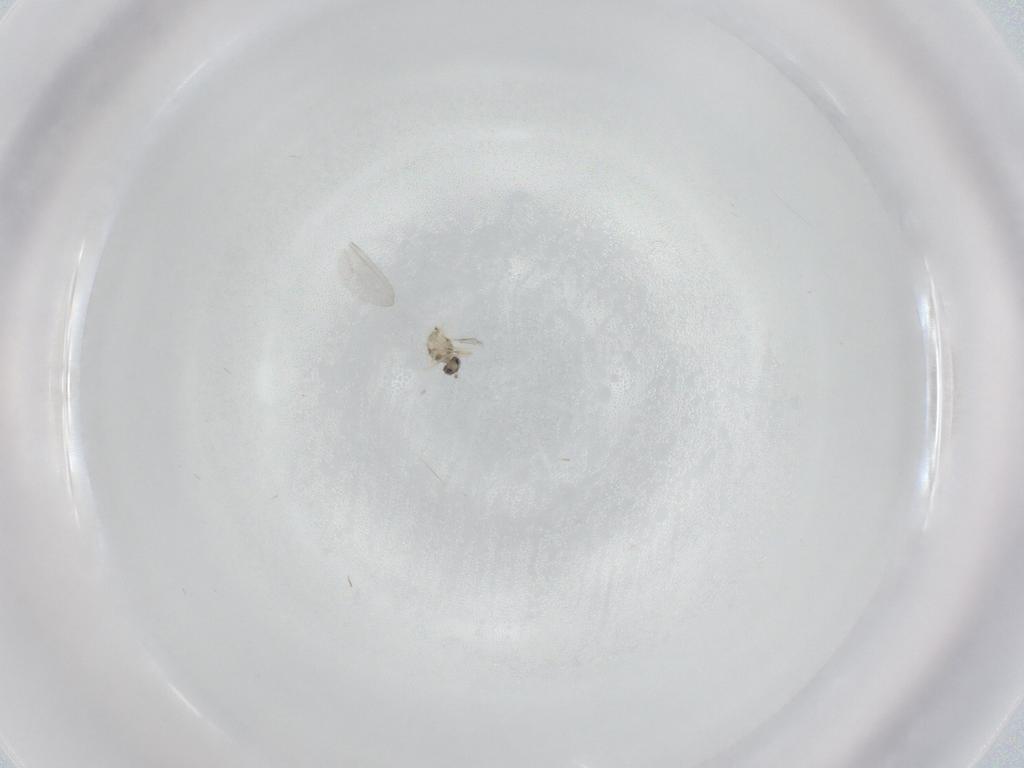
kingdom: Animalia
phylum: Arthropoda
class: Insecta
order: Diptera
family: Cecidomyiidae
